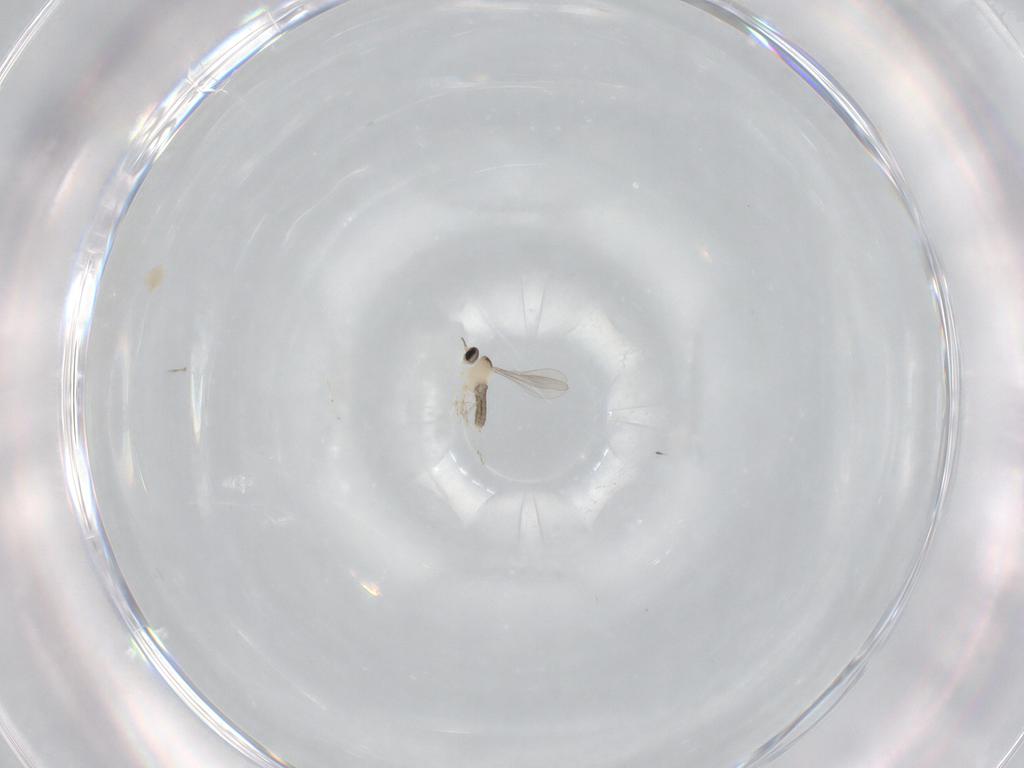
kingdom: Animalia
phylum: Arthropoda
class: Insecta
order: Diptera
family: Cecidomyiidae
